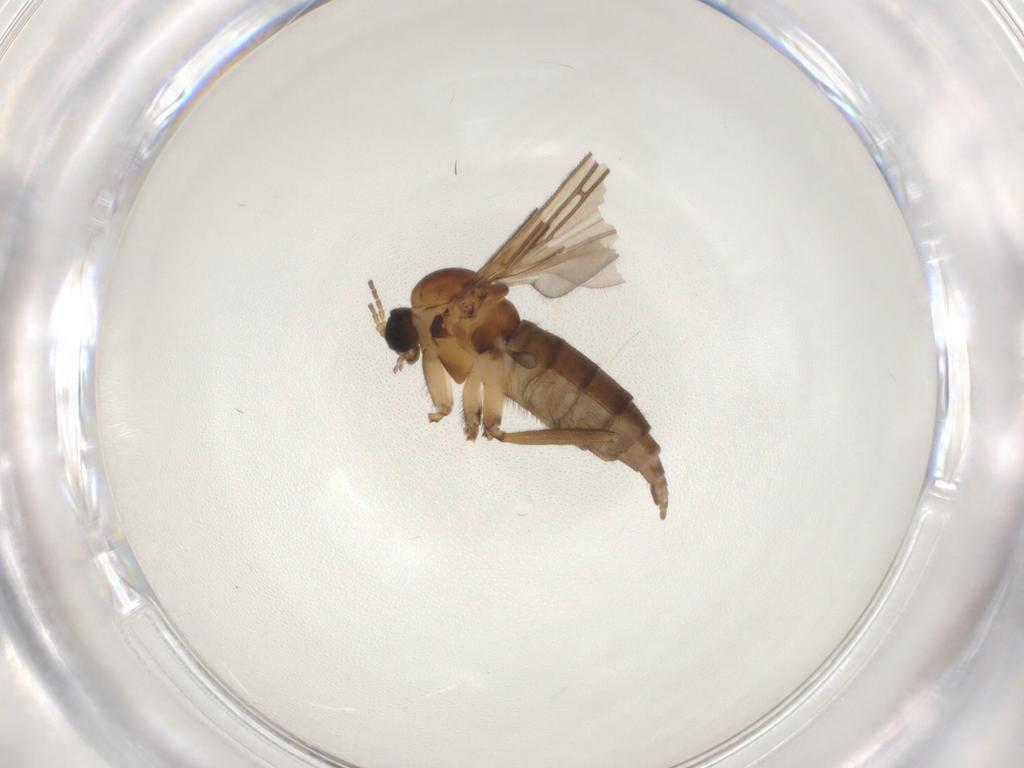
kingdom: Animalia
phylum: Arthropoda
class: Insecta
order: Diptera
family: Sciaridae
